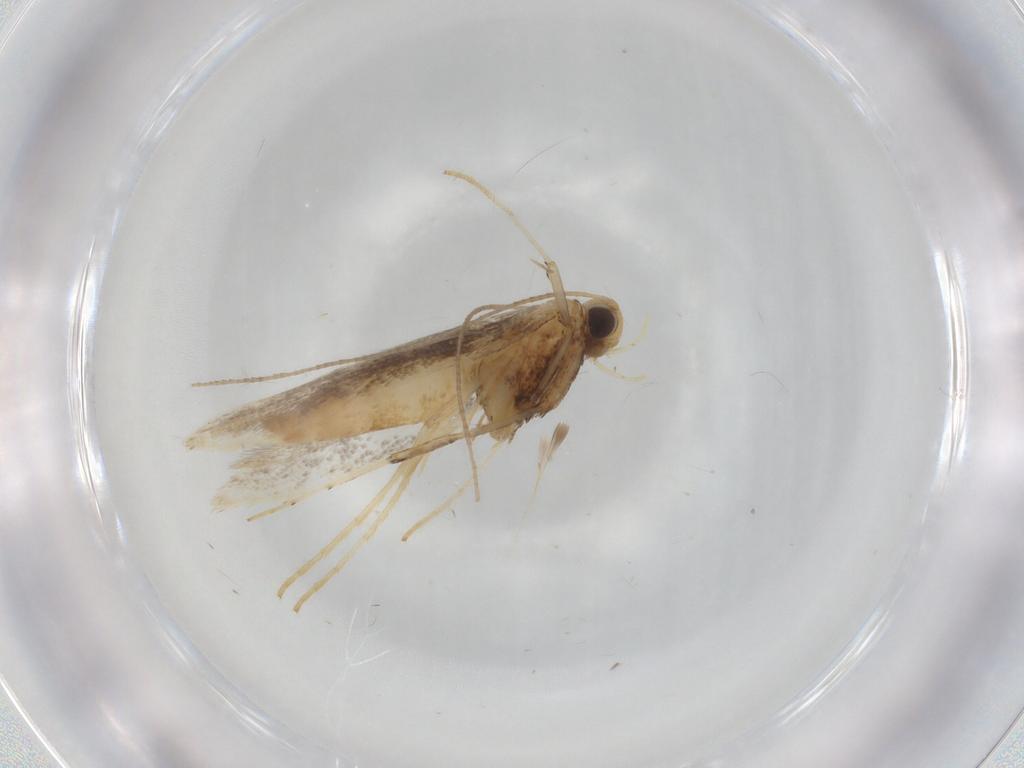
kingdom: Animalia
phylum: Arthropoda
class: Insecta
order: Lepidoptera
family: Gracillariidae
